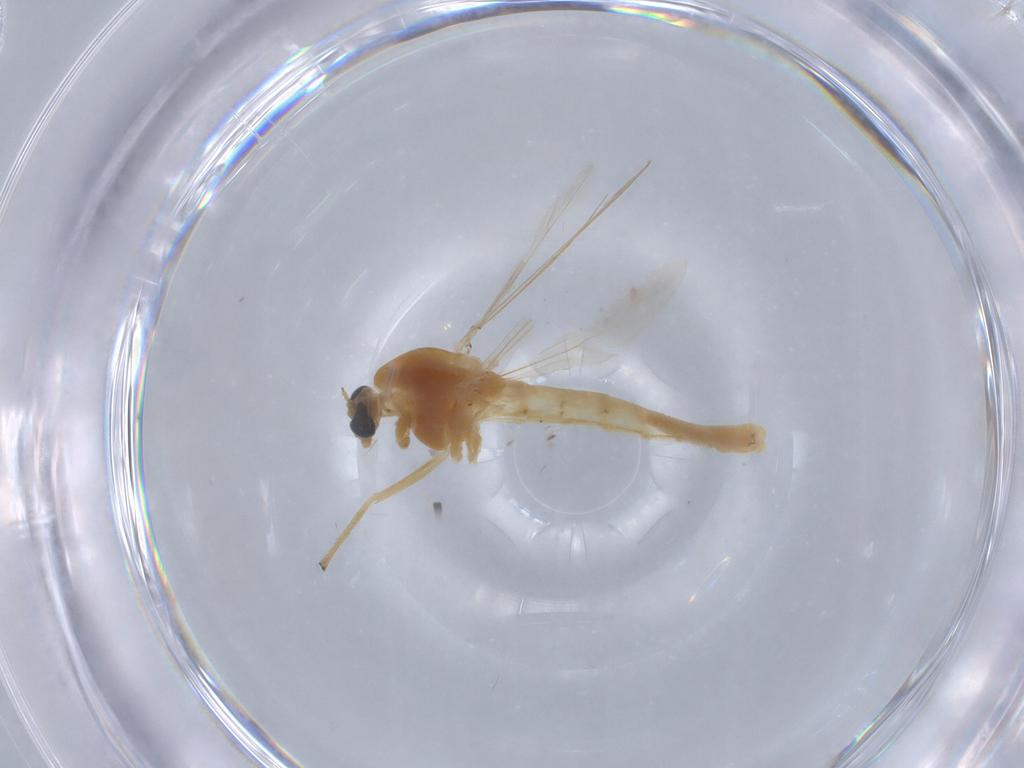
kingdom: Animalia
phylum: Arthropoda
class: Insecta
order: Diptera
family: Chironomidae
